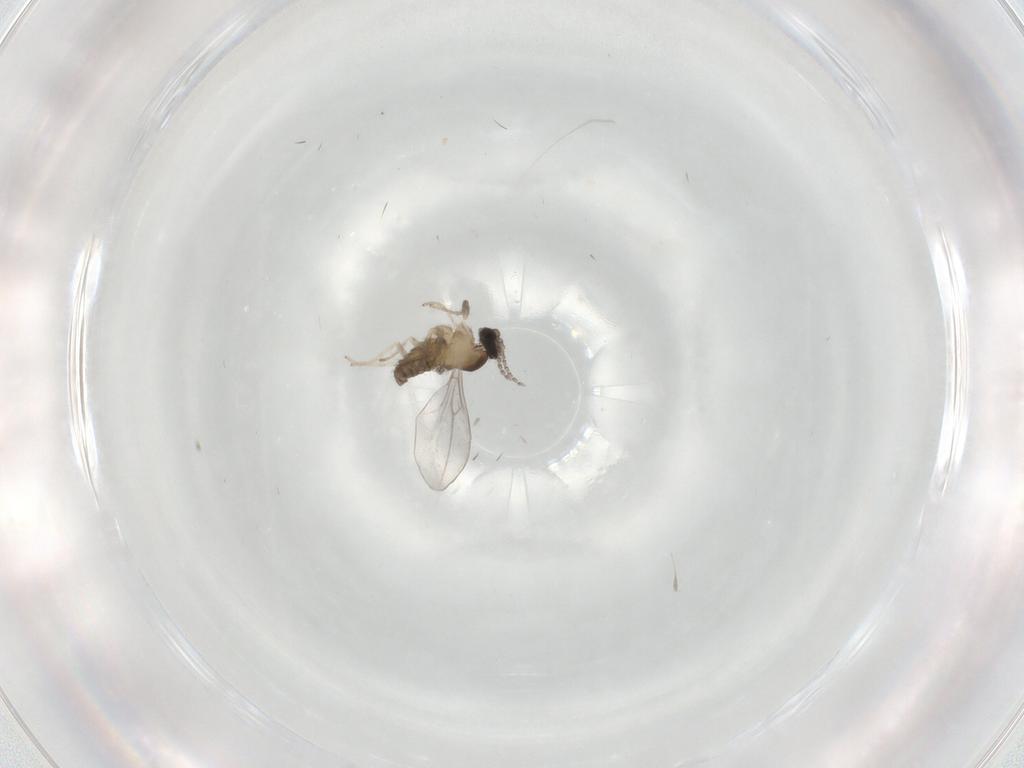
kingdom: Animalia
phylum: Arthropoda
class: Insecta
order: Diptera
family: Cecidomyiidae
